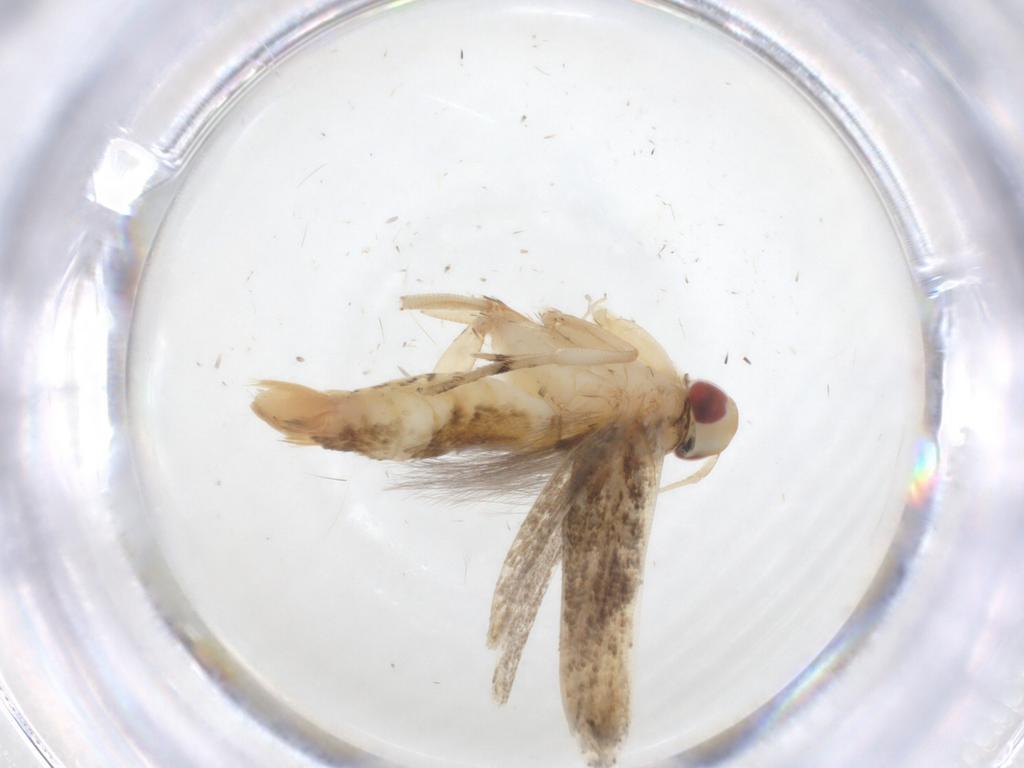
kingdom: Animalia
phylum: Arthropoda
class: Insecta
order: Lepidoptera
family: Cosmopterigidae
